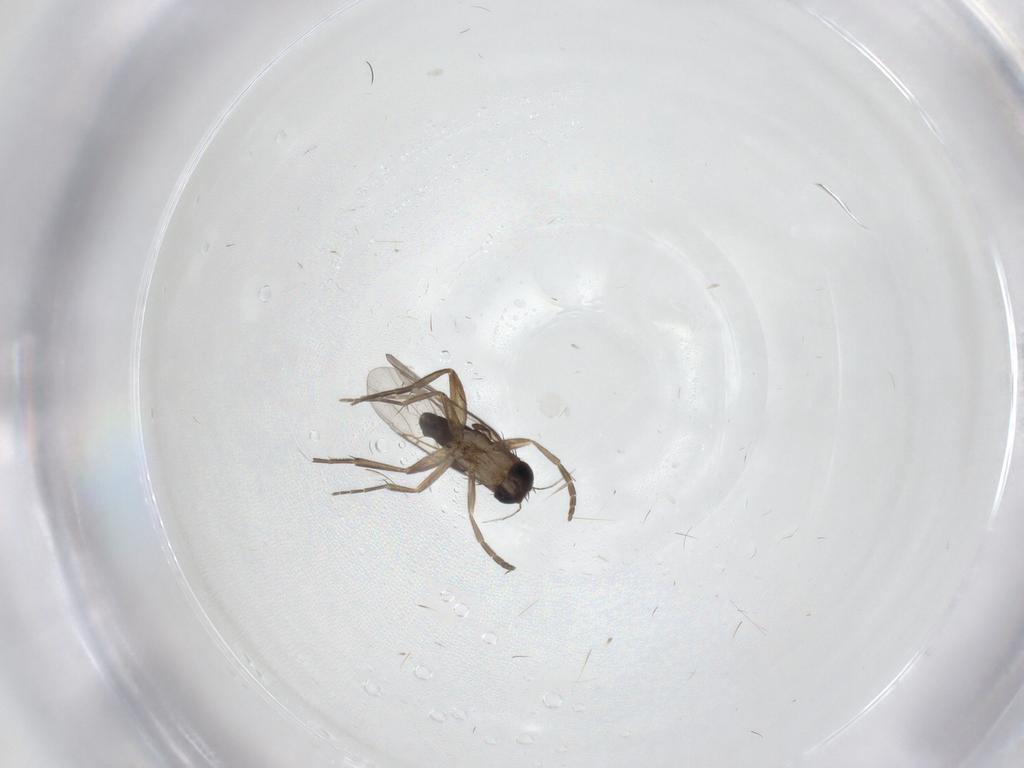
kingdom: Animalia
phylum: Arthropoda
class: Insecta
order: Diptera
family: Phoridae
